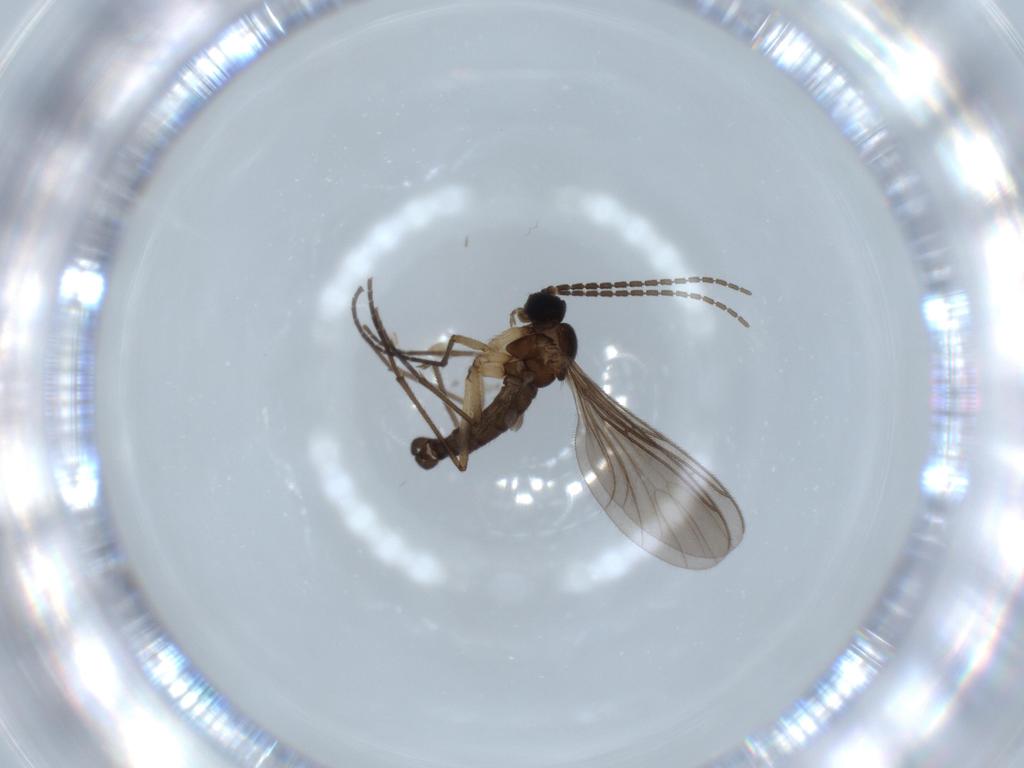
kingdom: Animalia
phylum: Arthropoda
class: Insecta
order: Diptera
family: Sciaridae
